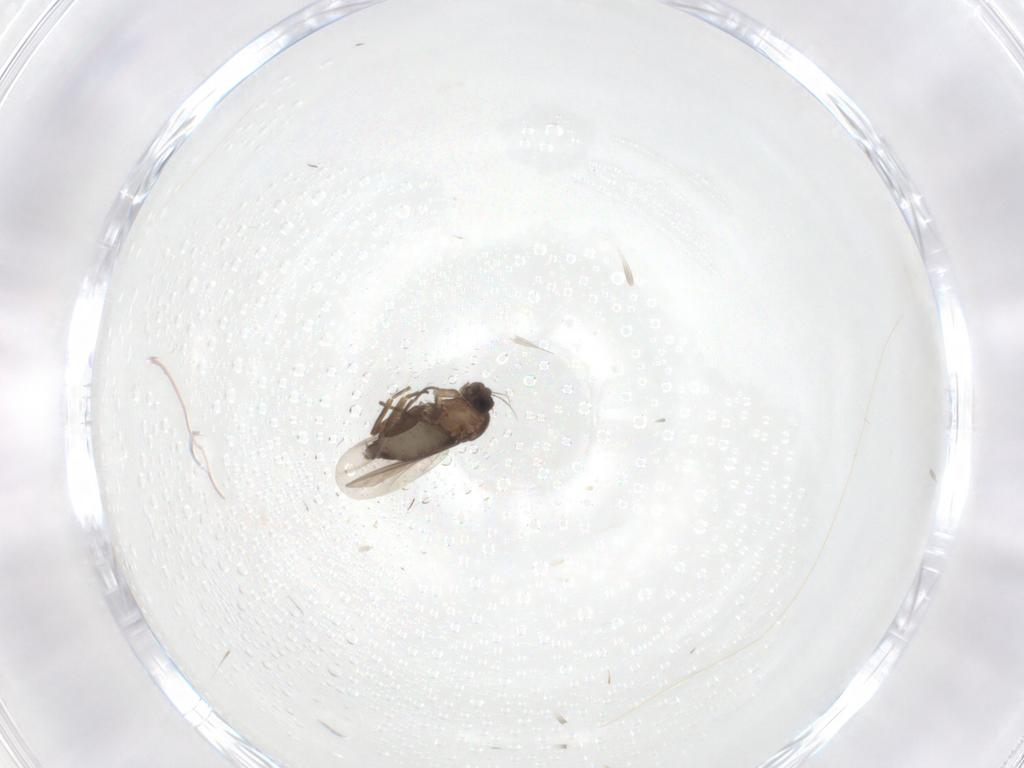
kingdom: Animalia
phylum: Arthropoda
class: Insecta
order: Diptera
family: Phoridae
